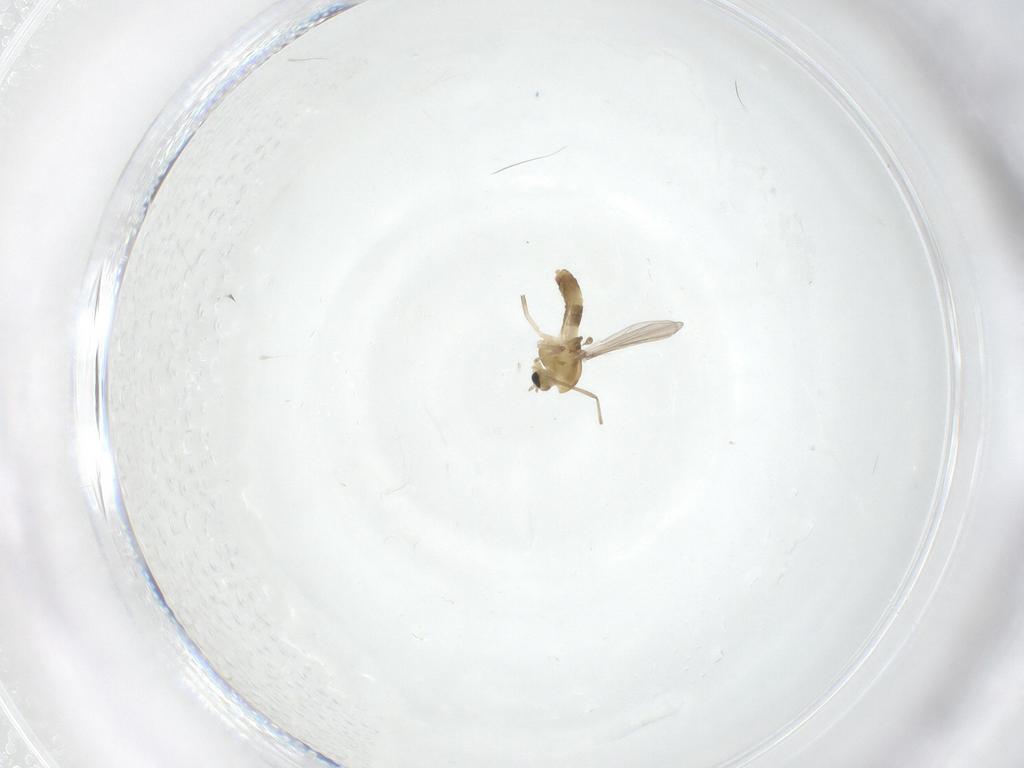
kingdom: Animalia
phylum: Arthropoda
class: Insecta
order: Diptera
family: Chironomidae
